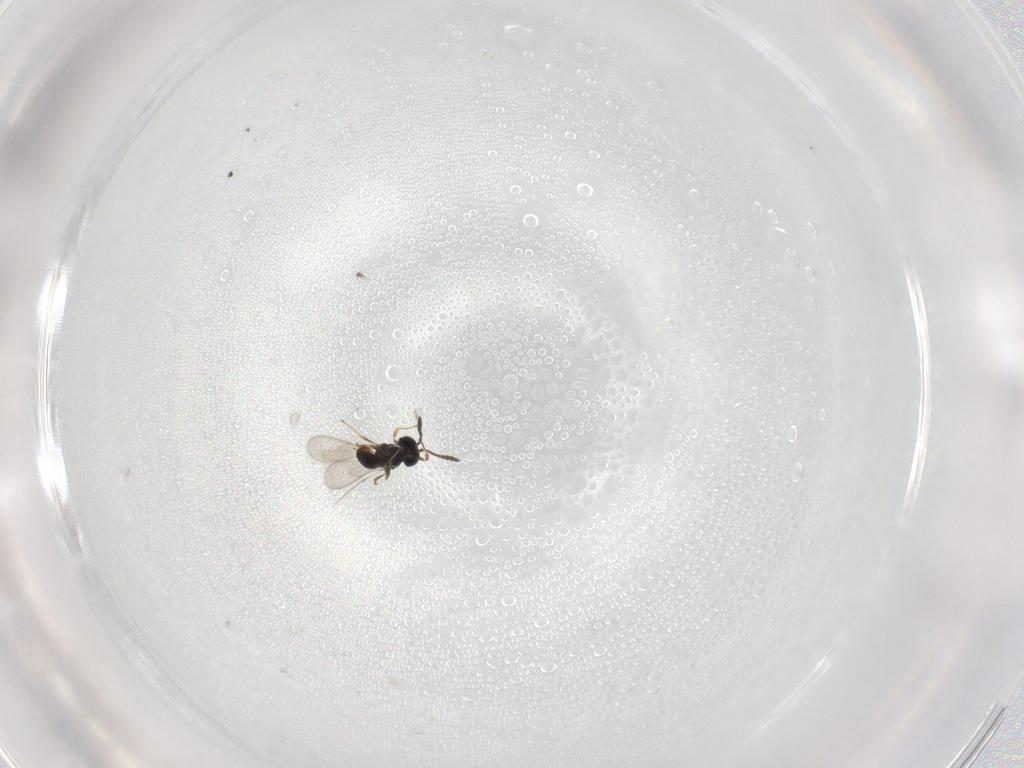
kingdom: Animalia
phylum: Arthropoda
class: Insecta
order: Hymenoptera
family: Scelionidae
